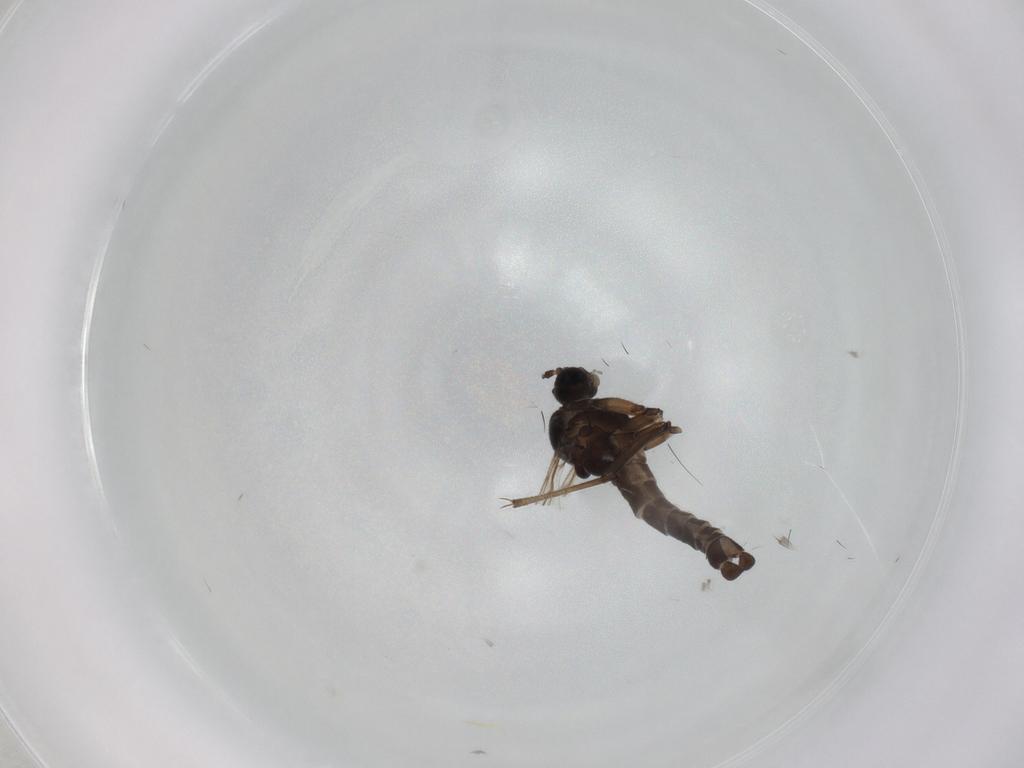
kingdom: Animalia
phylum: Arthropoda
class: Insecta
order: Diptera
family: Sciaridae
